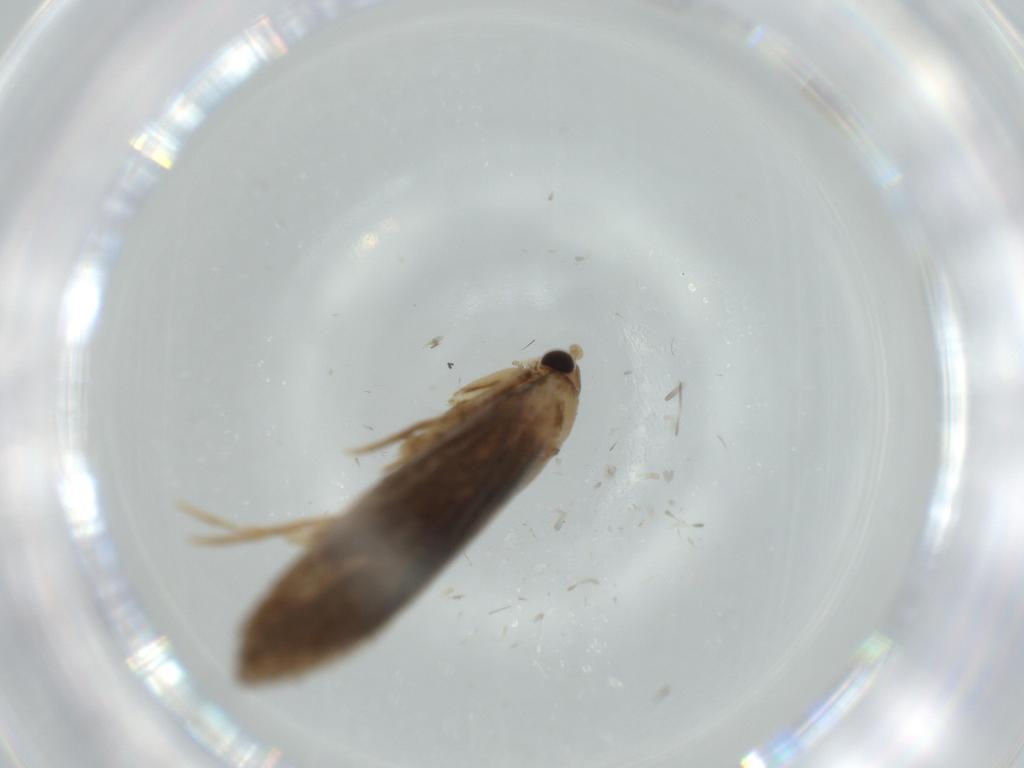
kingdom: Animalia
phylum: Arthropoda
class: Insecta
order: Lepidoptera
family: Tineidae
